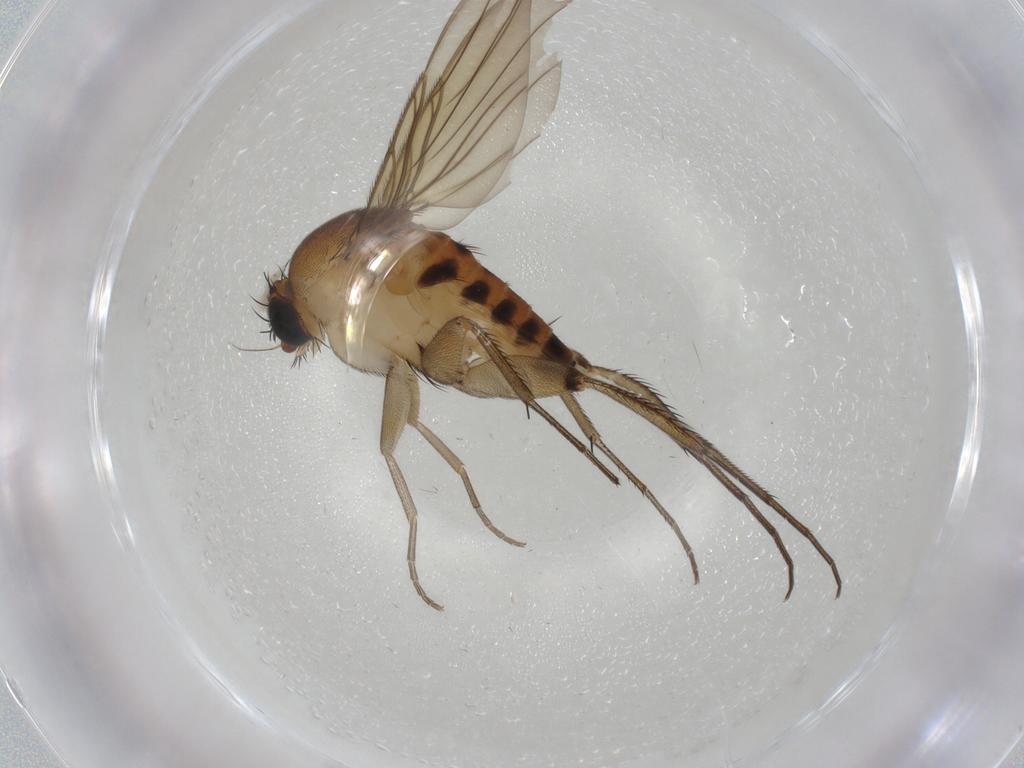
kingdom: Animalia
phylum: Arthropoda
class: Insecta
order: Diptera
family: Phoridae
